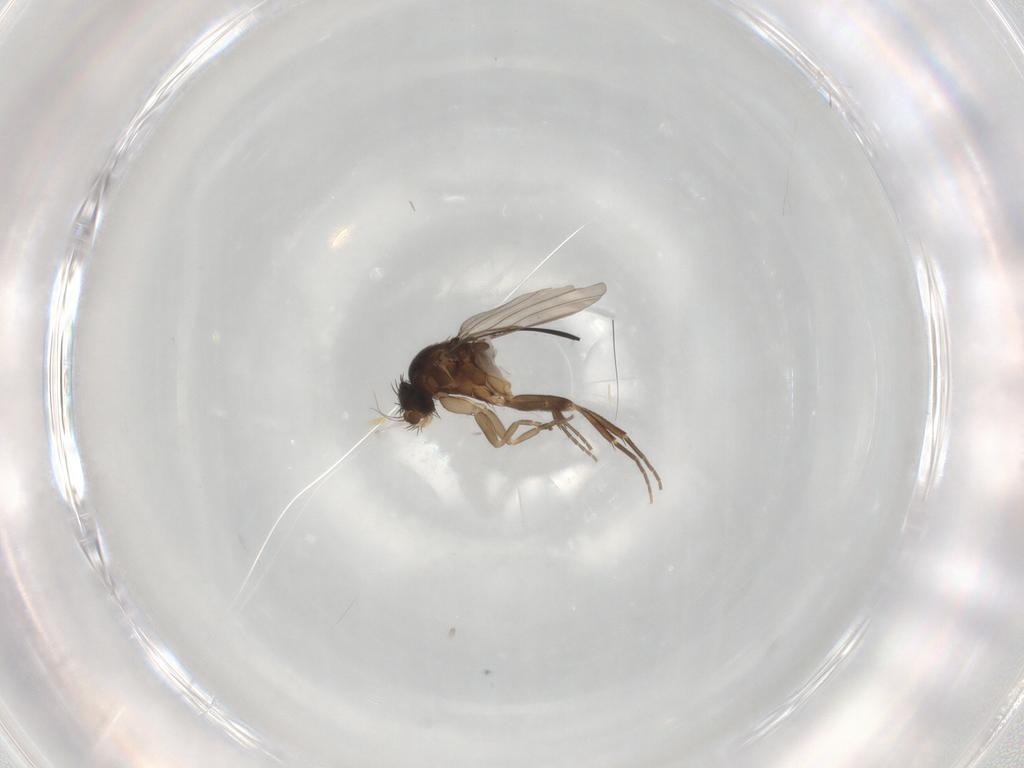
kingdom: Animalia
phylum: Arthropoda
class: Insecta
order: Diptera
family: Phoridae
